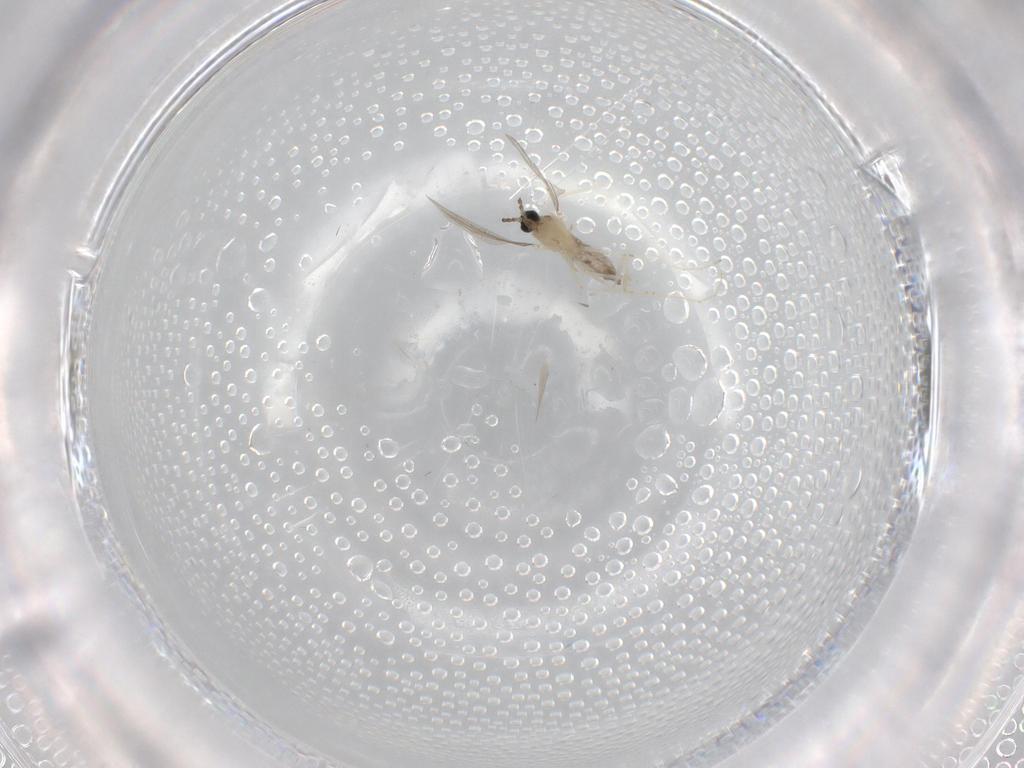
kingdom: Animalia
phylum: Arthropoda
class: Insecta
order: Diptera
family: Cecidomyiidae
